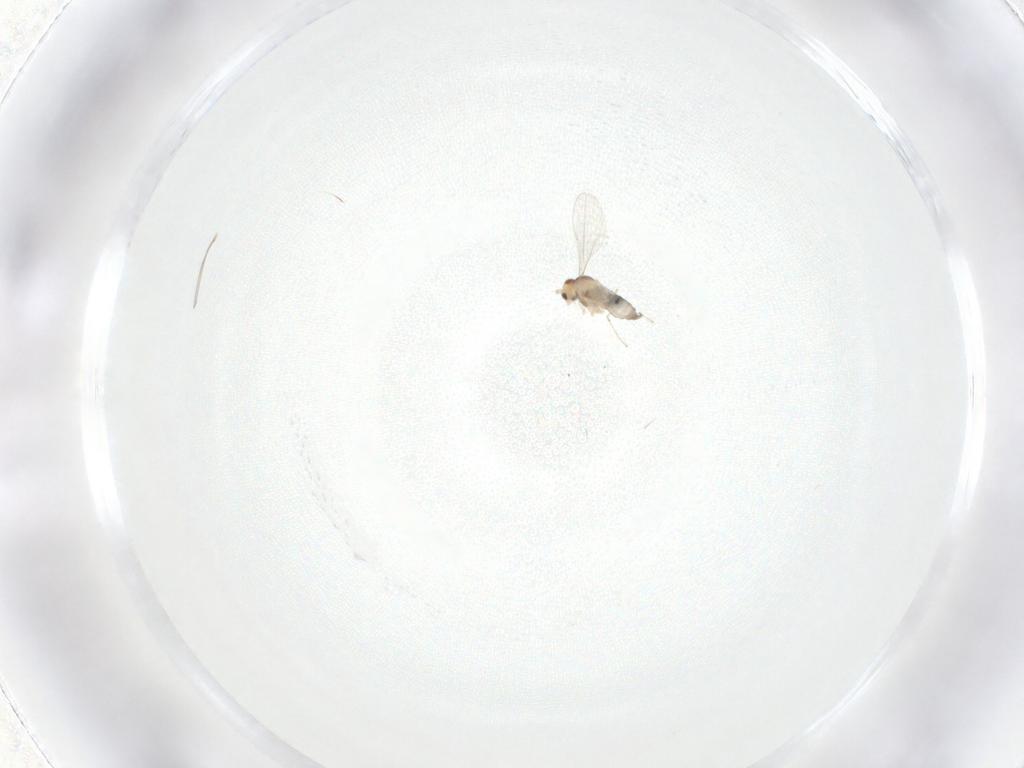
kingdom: Animalia
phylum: Arthropoda
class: Insecta
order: Diptera
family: Cecidomyiidae
